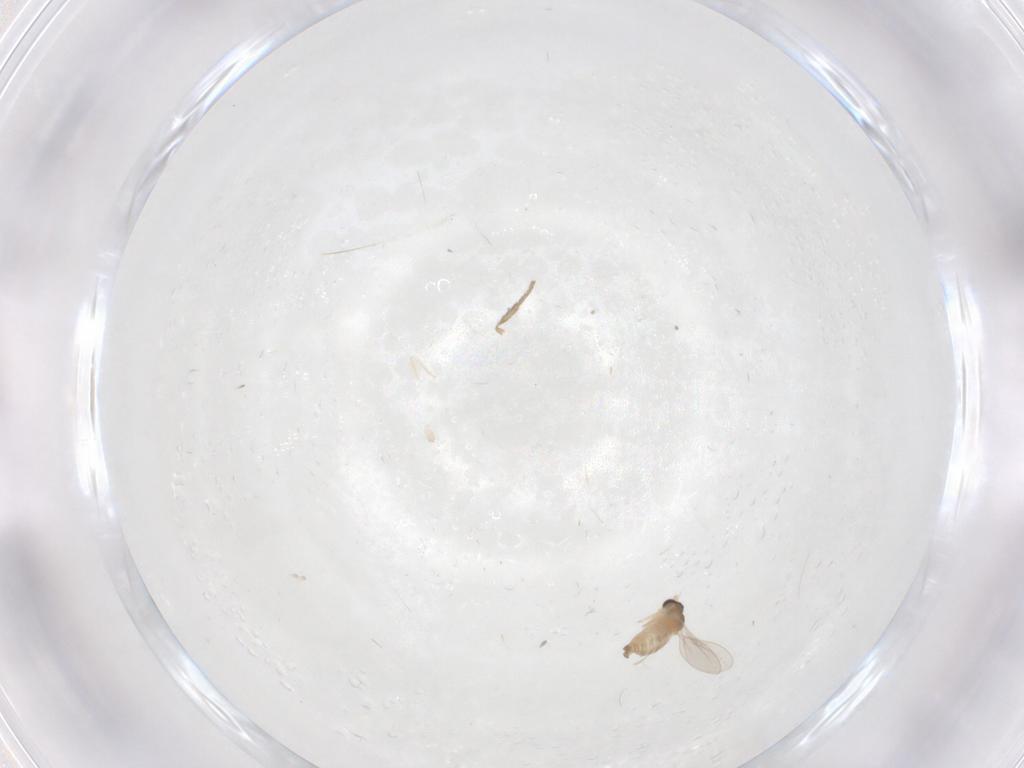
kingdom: Animalia
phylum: Arthropoda
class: Insecta
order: Diptera
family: Cecidomyiidae
